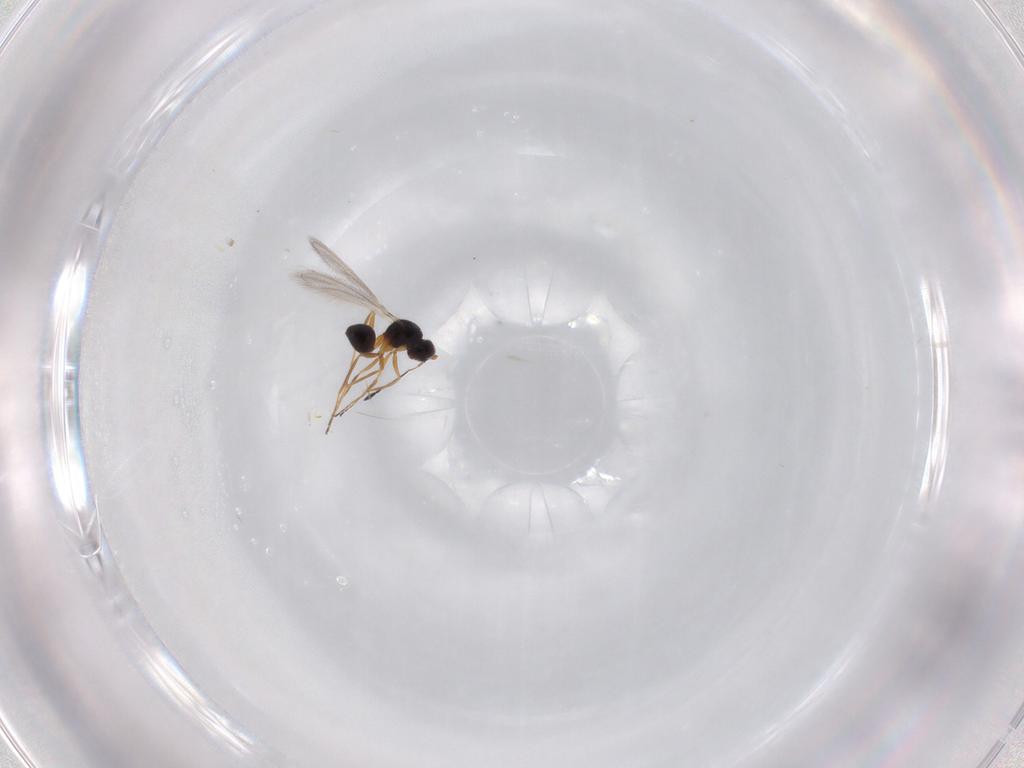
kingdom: Animalia
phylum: Arthropoda
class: Insecta
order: Hymenoptera
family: Mymaridae
